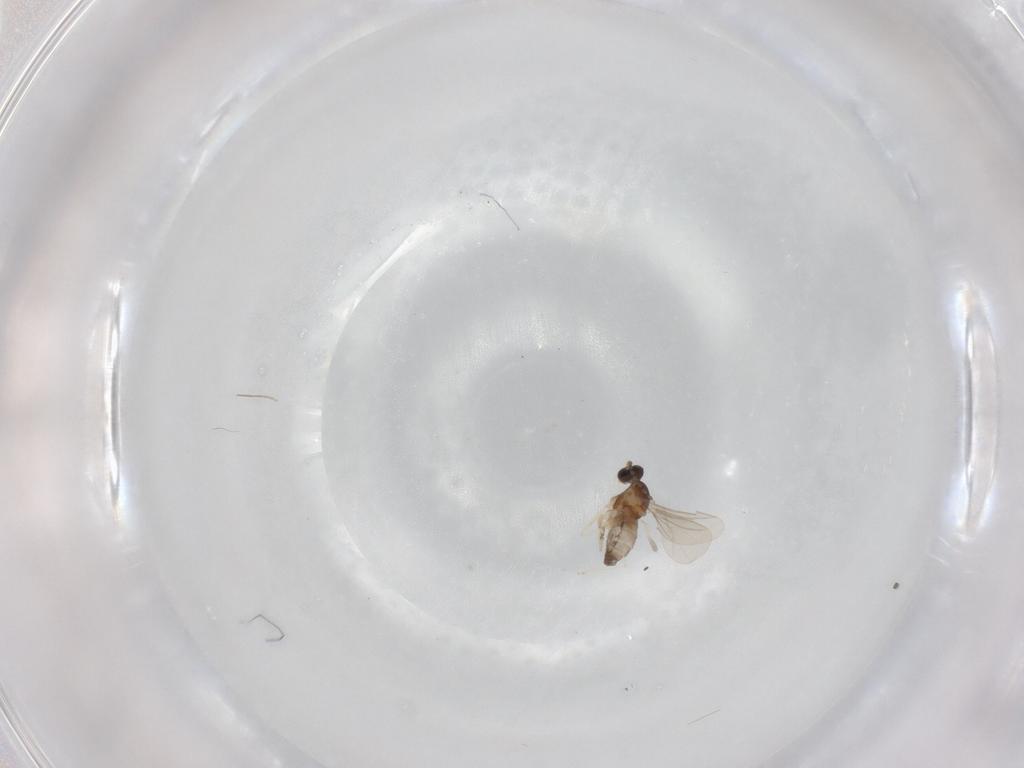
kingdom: Animalia
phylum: Arthropoda
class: Insecta
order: Diptera
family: Cecidomyiidae
